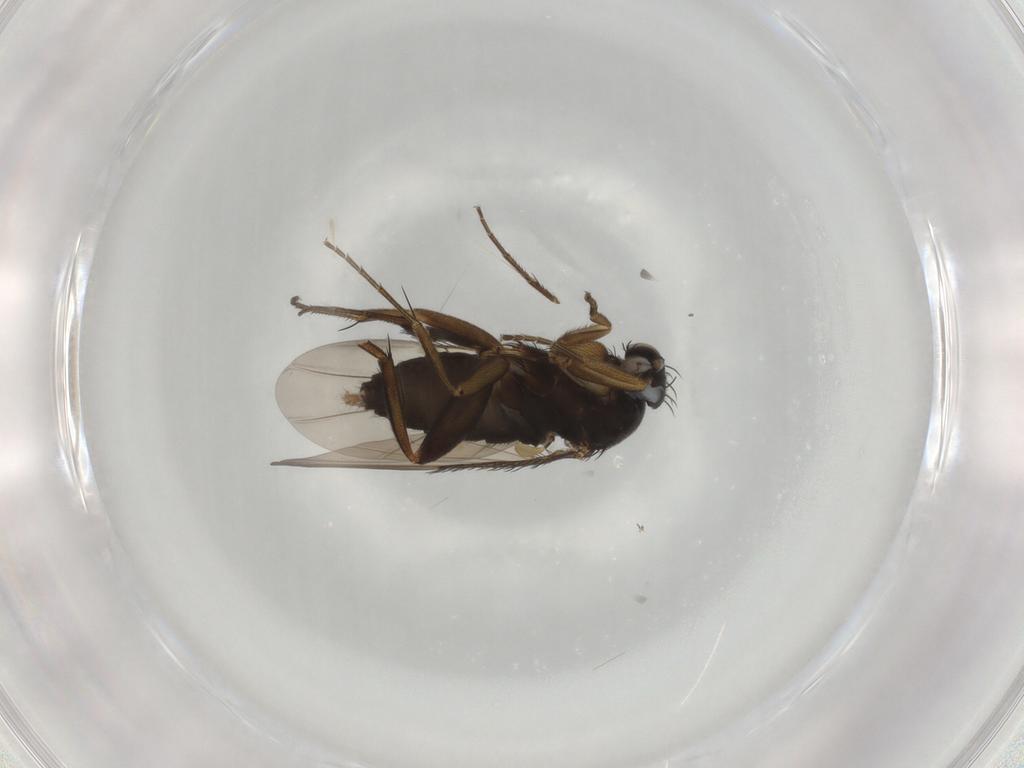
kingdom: Animalia
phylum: Arthropoda
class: Insecta
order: Diptera
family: Phoridae
